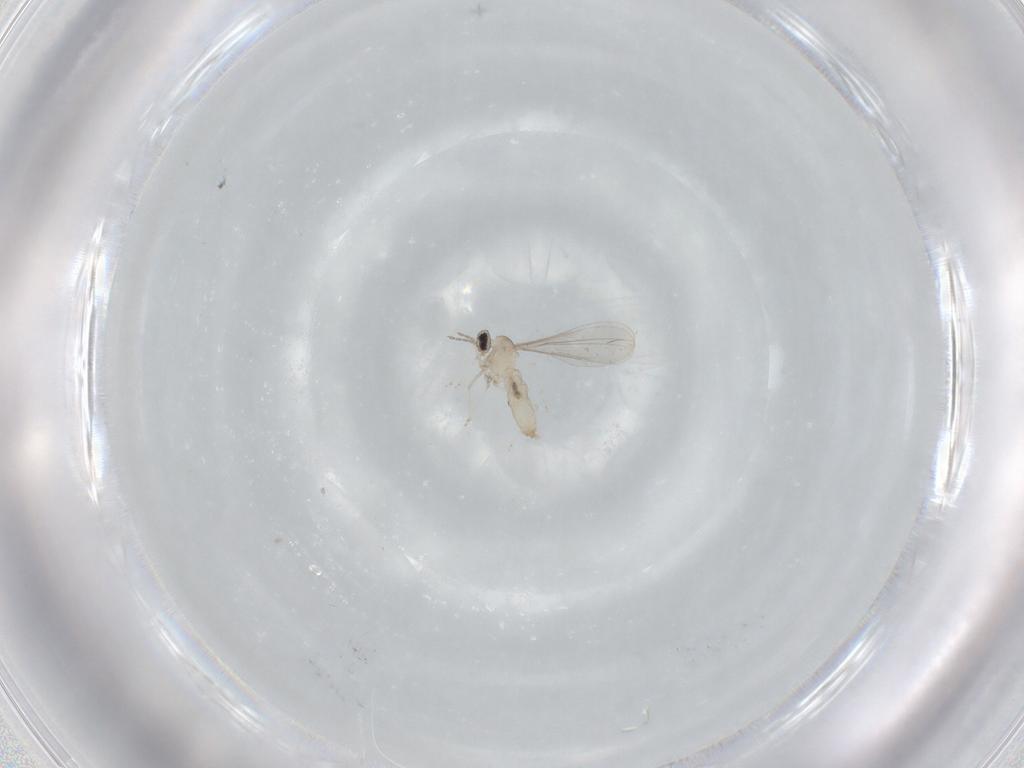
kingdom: Animalia
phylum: Arthropoda
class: Insecta
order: Diptera
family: Cecidomyiidae
